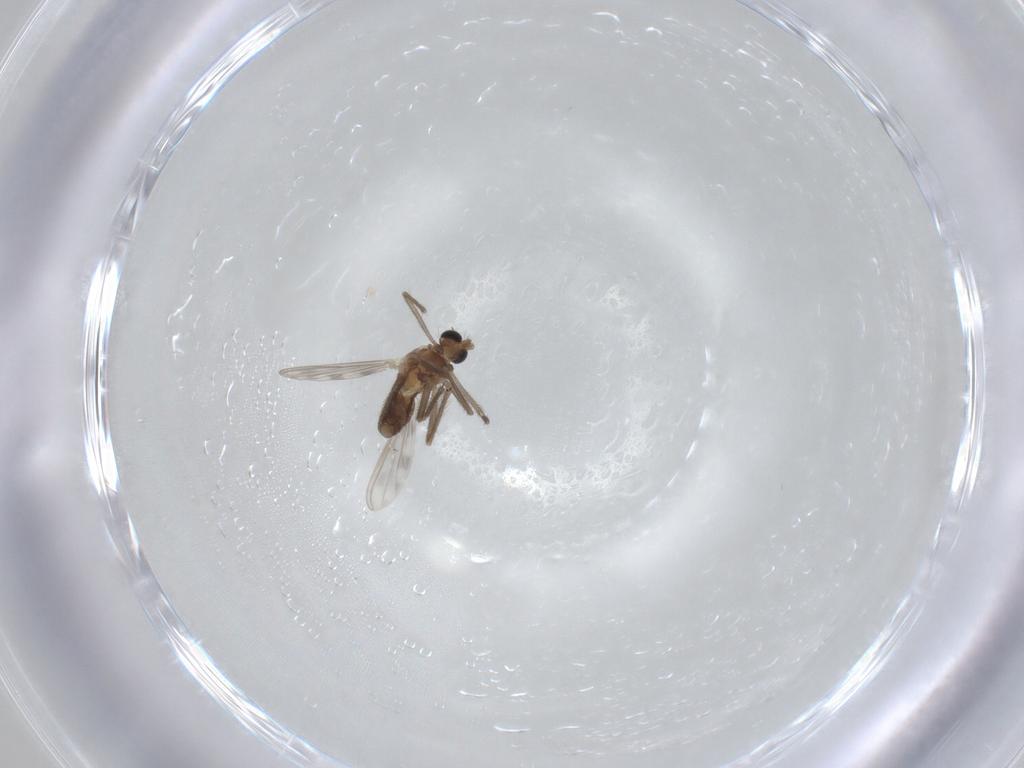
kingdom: Animalia
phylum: Arthropoda
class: Insecta
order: Diptera
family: Chironomidae
